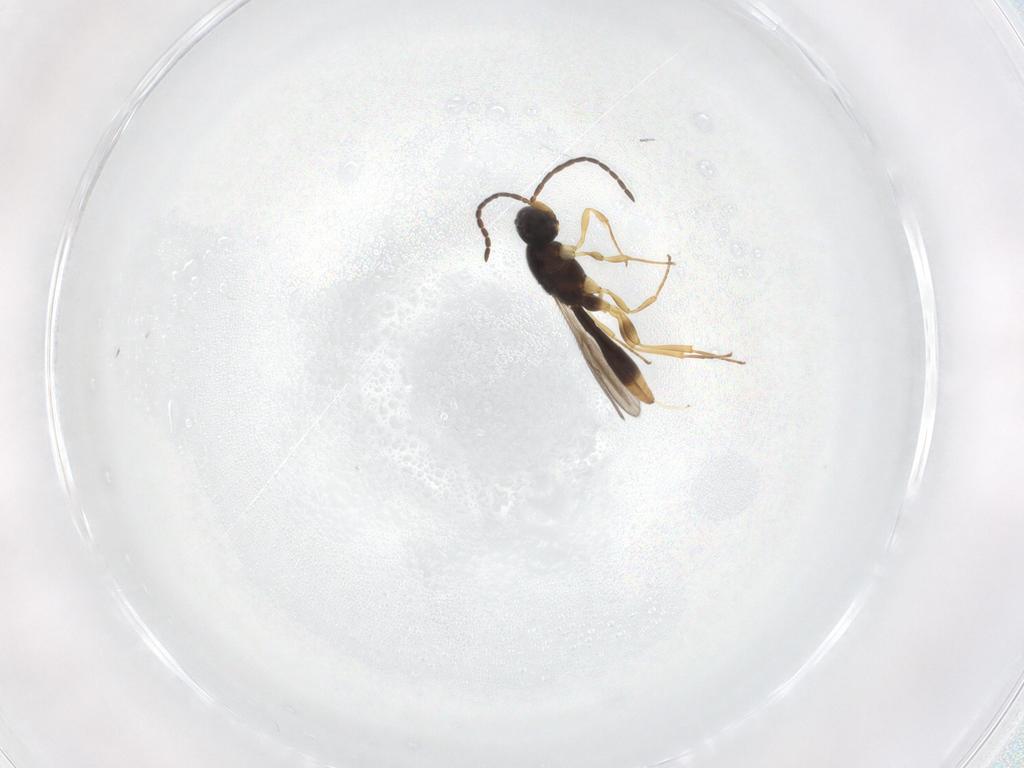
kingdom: Animalia
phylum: Arthropoda
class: Insecta
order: Hymenoptera
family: Scelionidae
